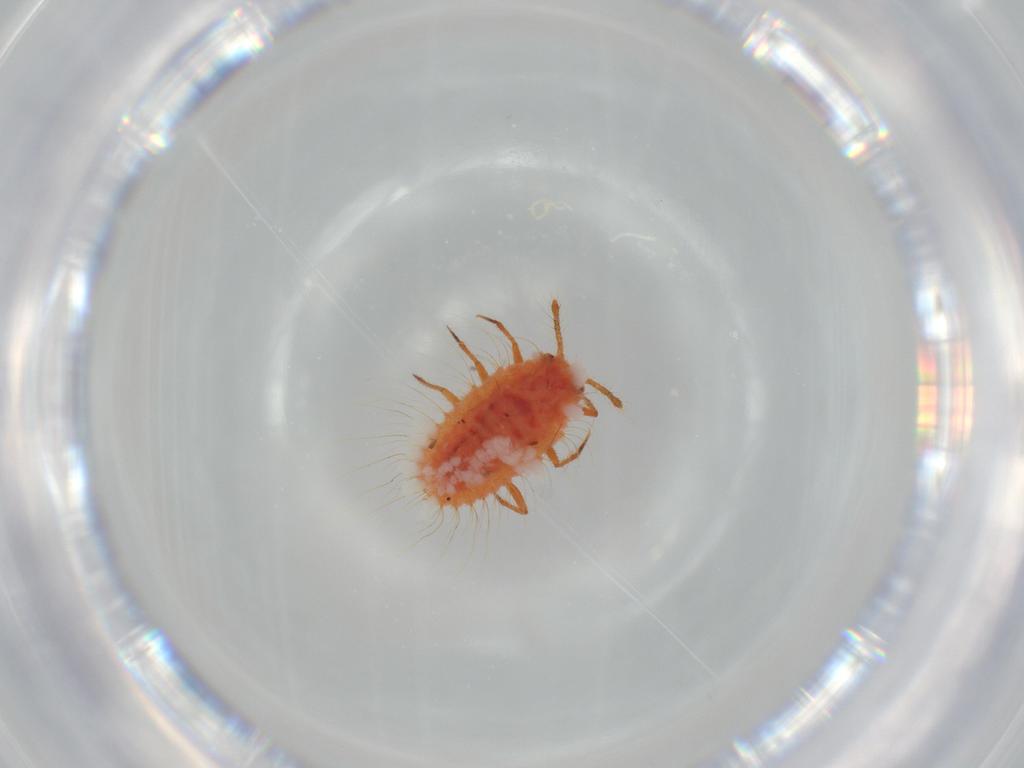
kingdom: Animalia
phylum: Arthropoda
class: Insecta
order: Hemiptera
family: Coccoidea_incertae_sedis
